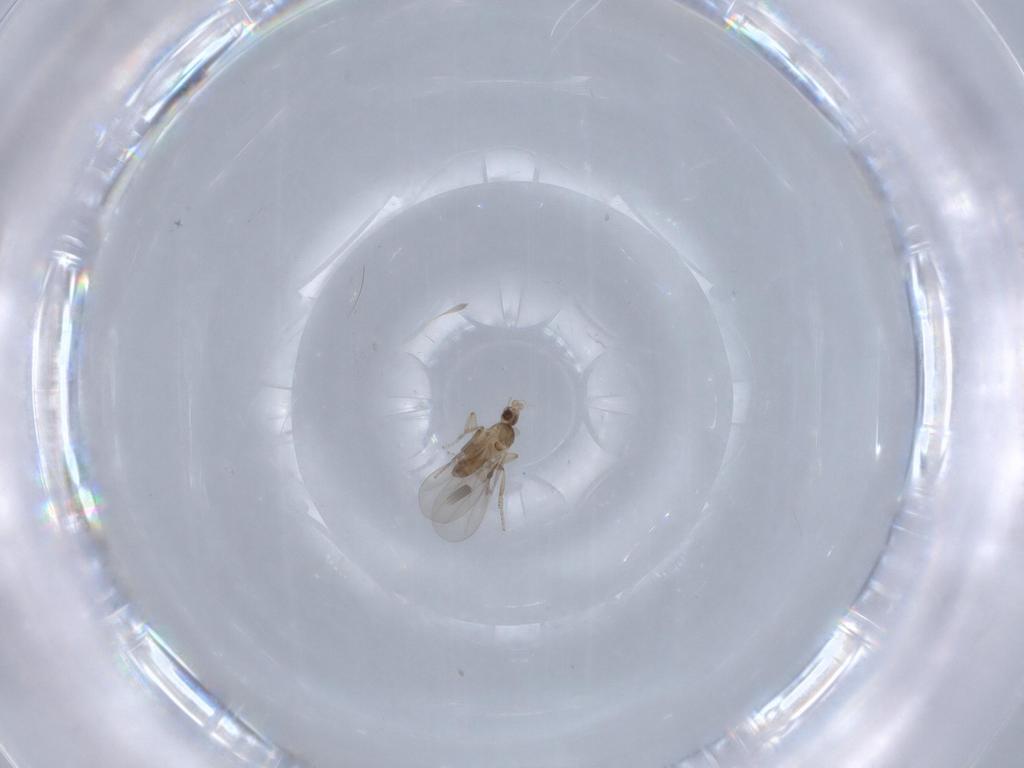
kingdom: Animalia
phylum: Arthropoda
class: Insecta
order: Diptera
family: Phoridae
